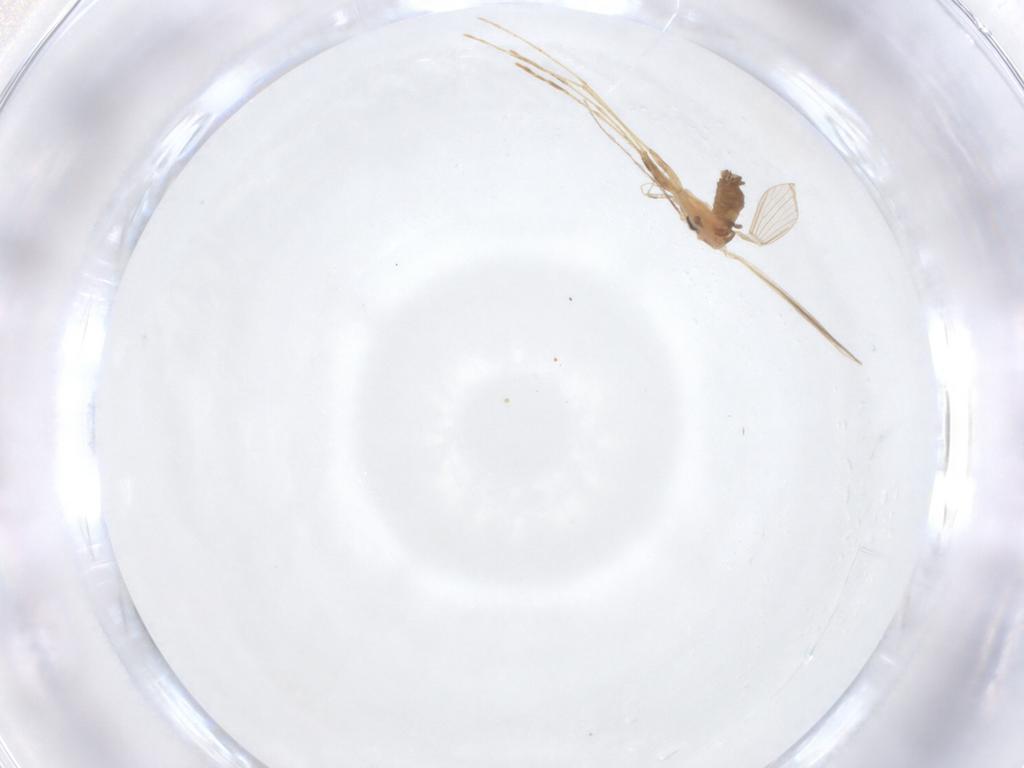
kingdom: Animalia
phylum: Arthropoda
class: Insecta
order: Diptera
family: Psychodidae
